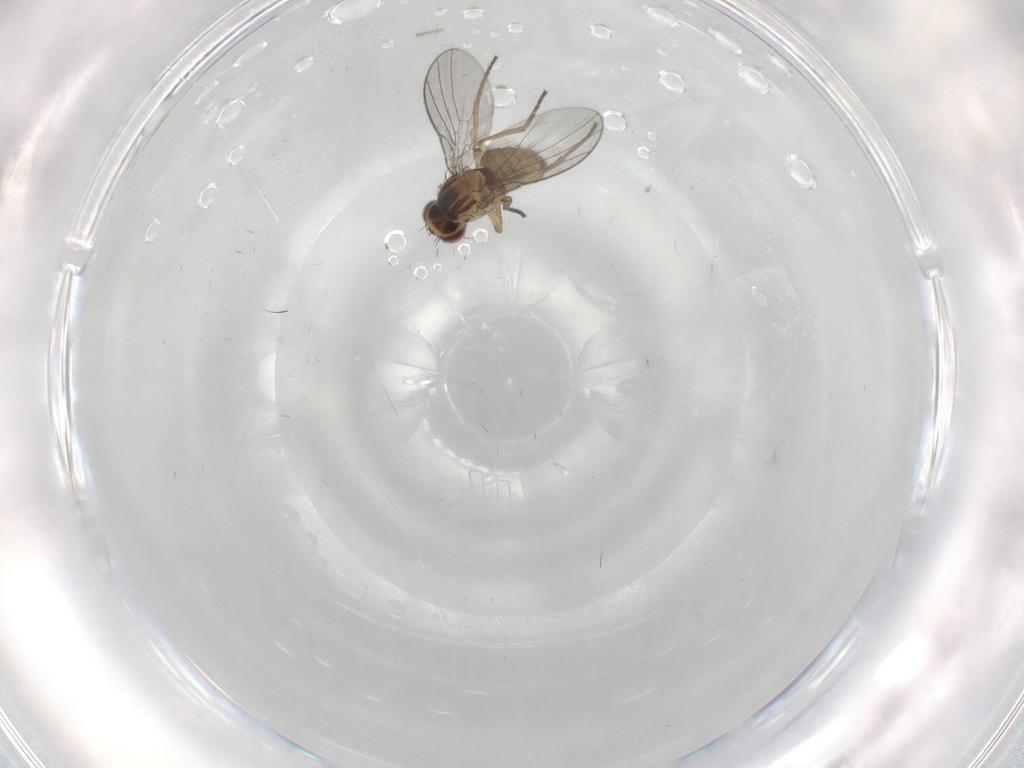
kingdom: Animalia
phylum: Arthropoda
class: Insecta
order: Diptera
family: Agromyzidae
